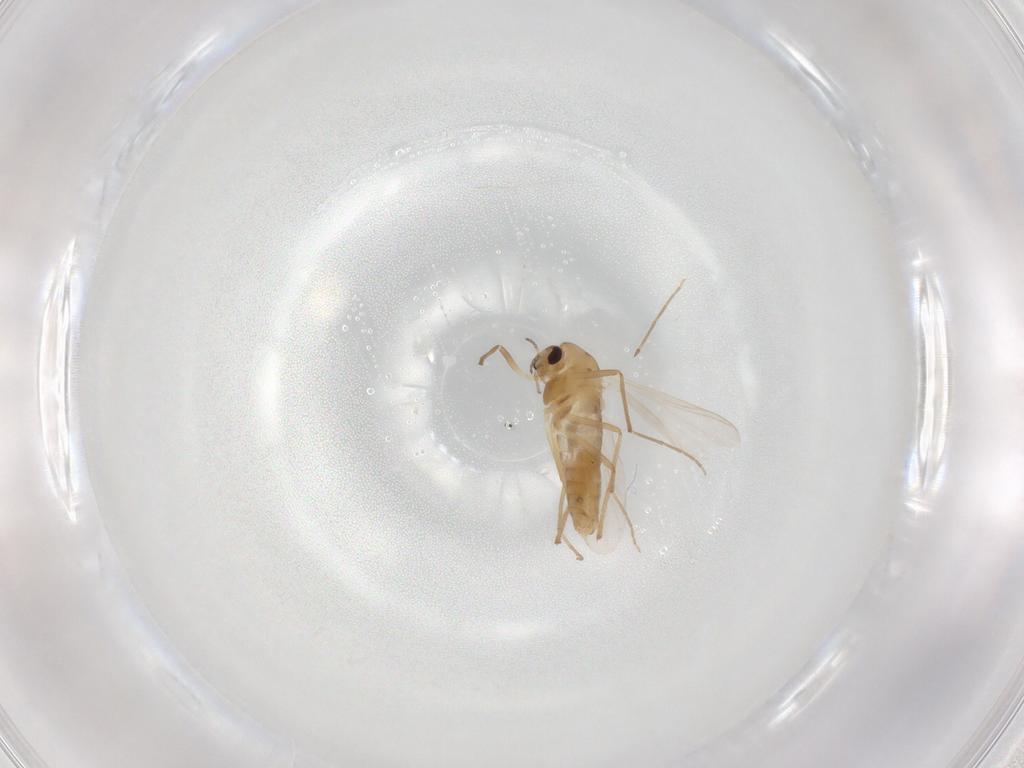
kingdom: Animalia
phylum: Arthropoda
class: Insecta
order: Diptera
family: Chironomidae
